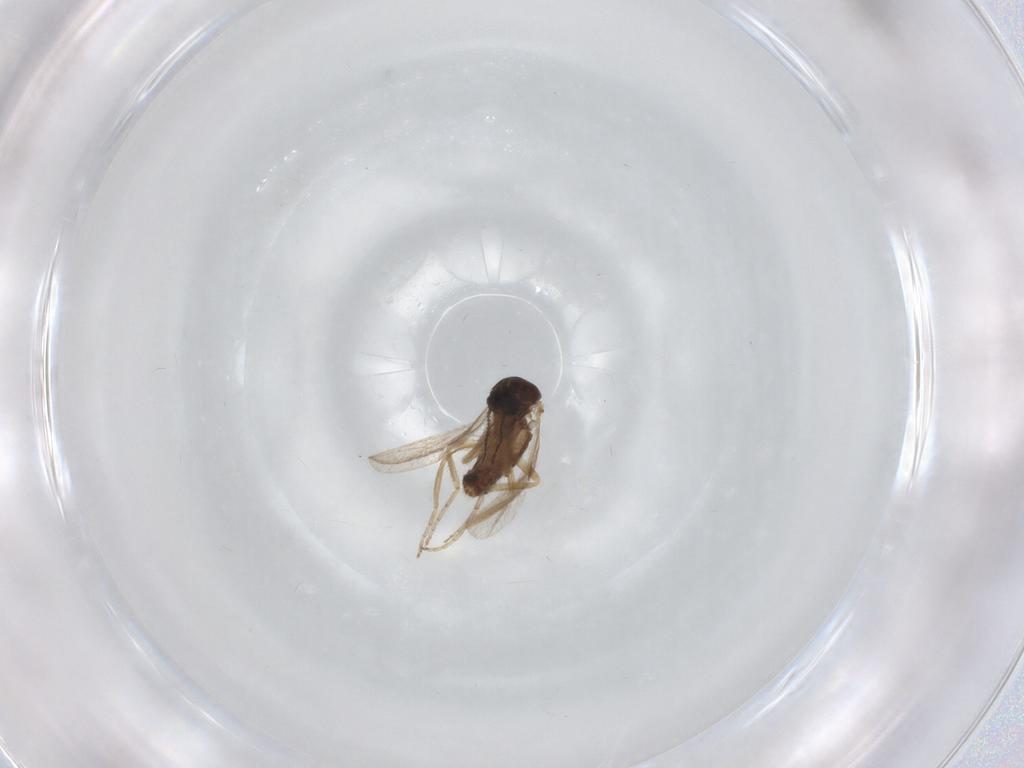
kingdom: Animalia
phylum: Arthropoda
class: Insecta
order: Diptera
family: Ceratopogonidae
